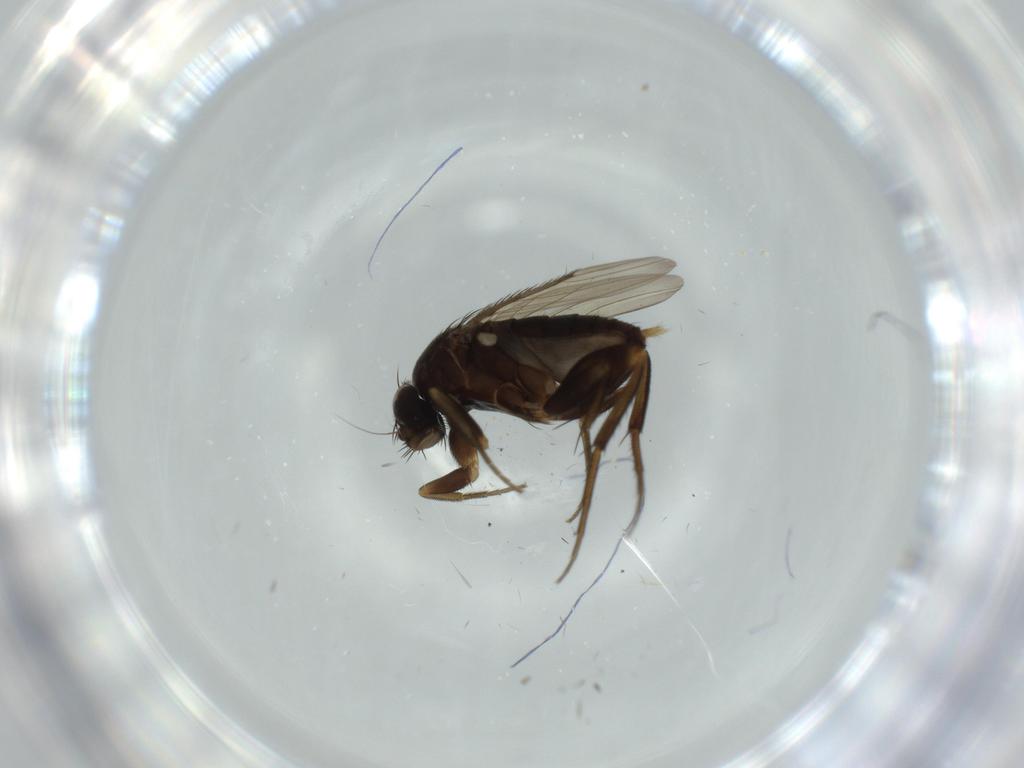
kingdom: Animalia
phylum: Arthropoda
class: Insecta
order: Diptera
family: Phoridae
